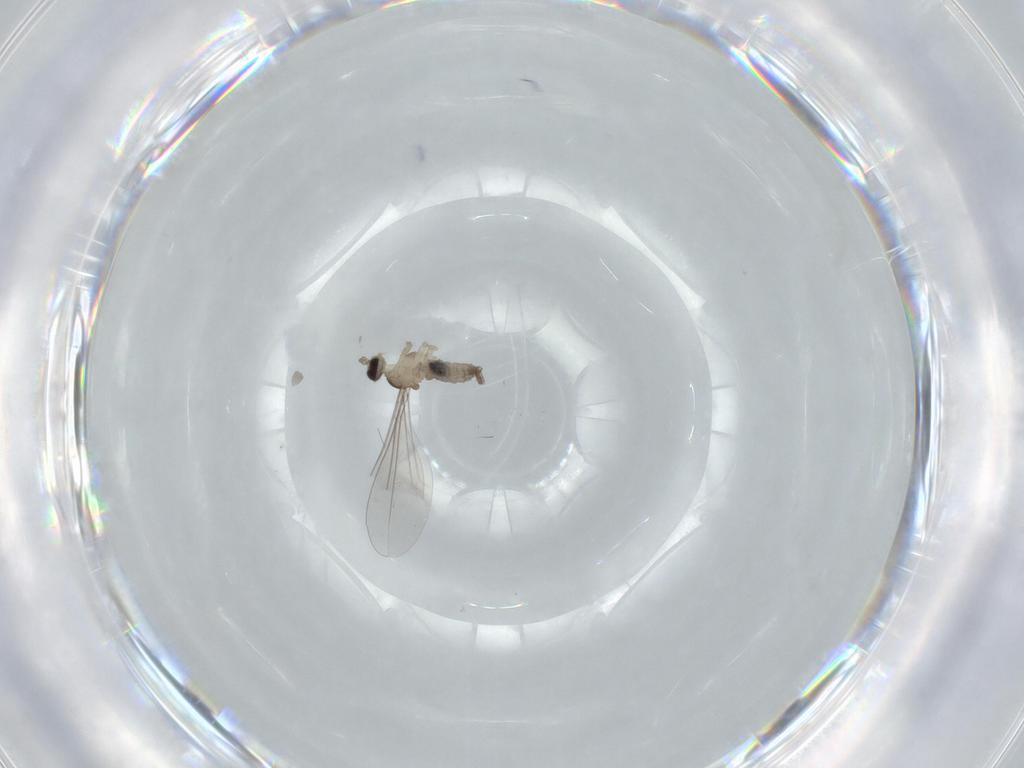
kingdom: Animalia
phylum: Arthropoda
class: Insecta
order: Diptera
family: Cecidomyiidae
